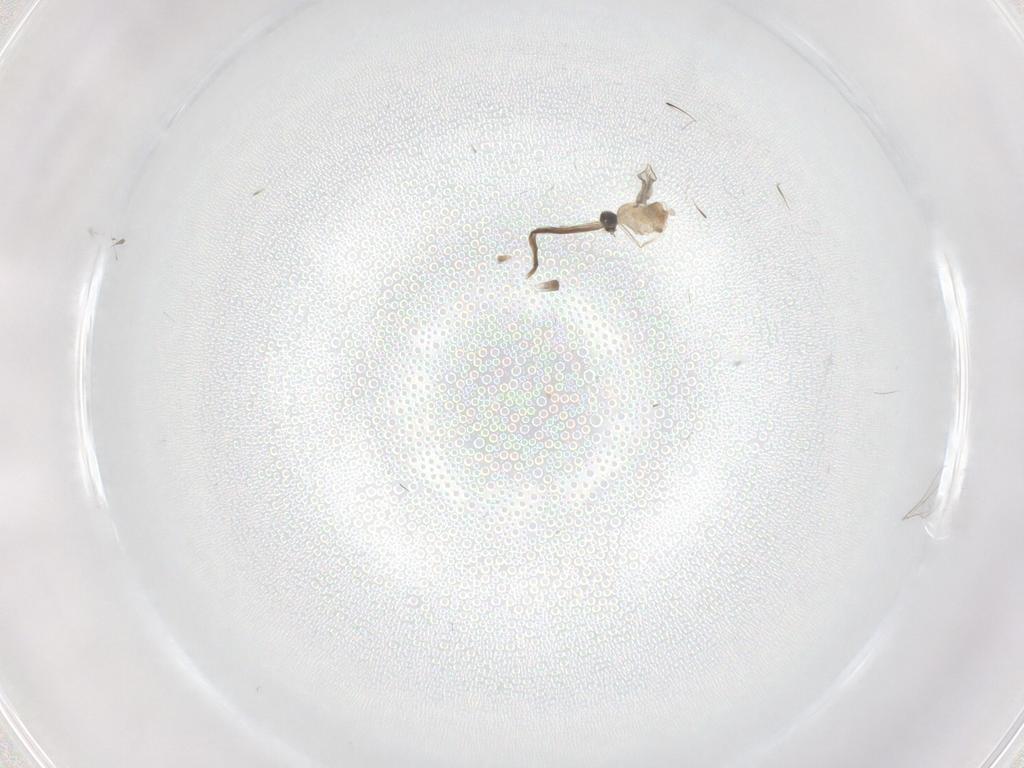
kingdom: Animalia
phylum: Arthropoda
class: Insecta
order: Diptera
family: Cecidomyiidae
